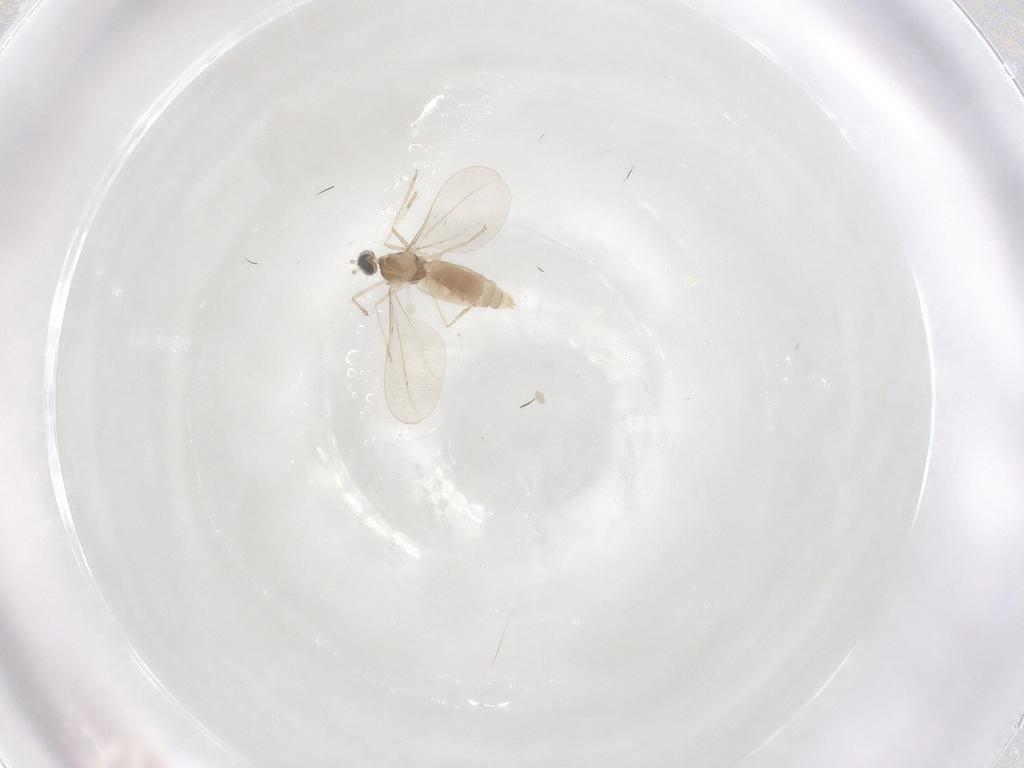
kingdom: Animalia
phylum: Arthropoda
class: Insecta
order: Diptera
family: Cecidomyiidae
